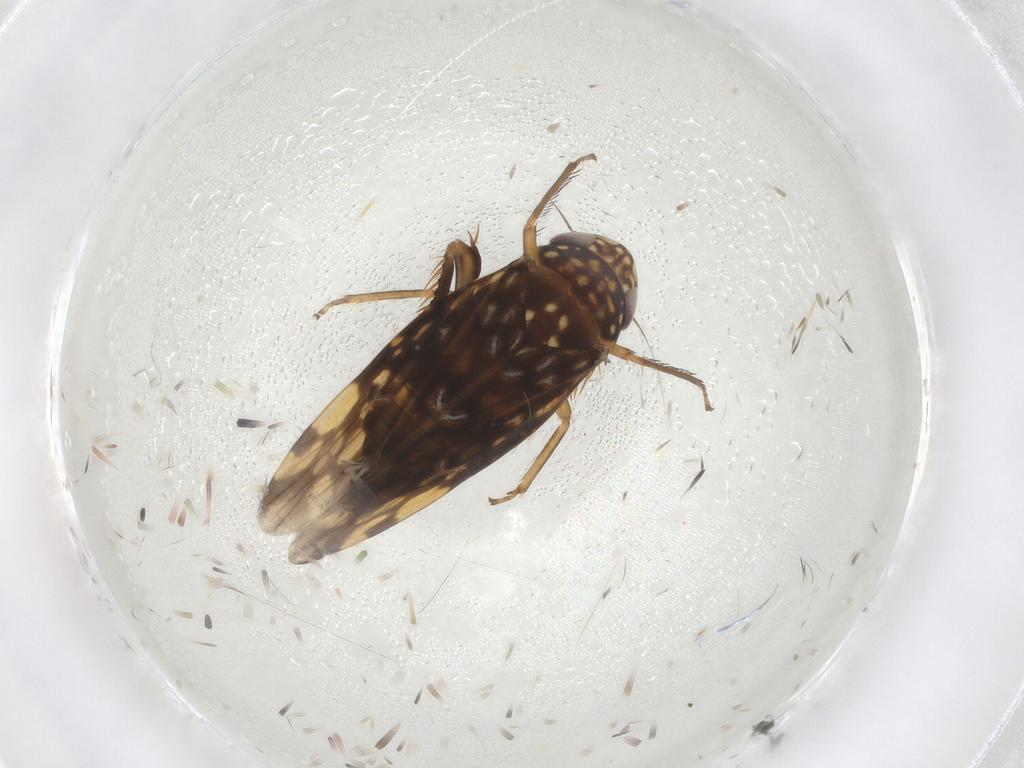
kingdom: Animalia
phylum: Arthropoda
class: Insecta
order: Hemiptera
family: Cicadellidae
